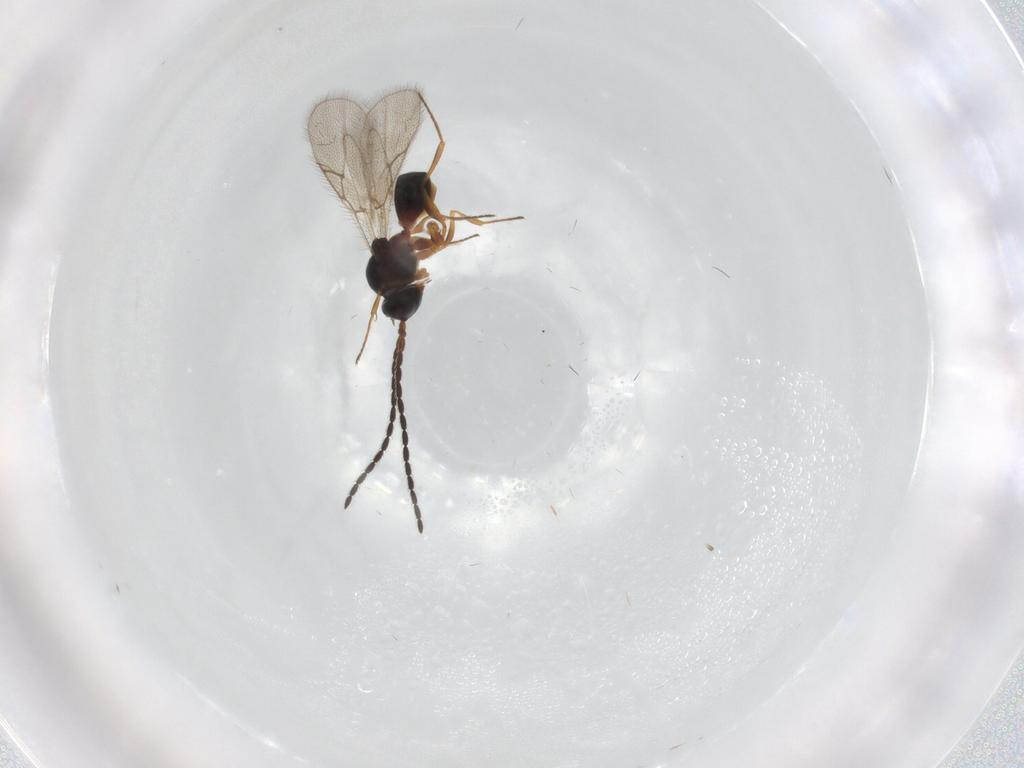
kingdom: Animalia
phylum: Arthropoda
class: Insecta
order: Hymenoptera
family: Figitidae
